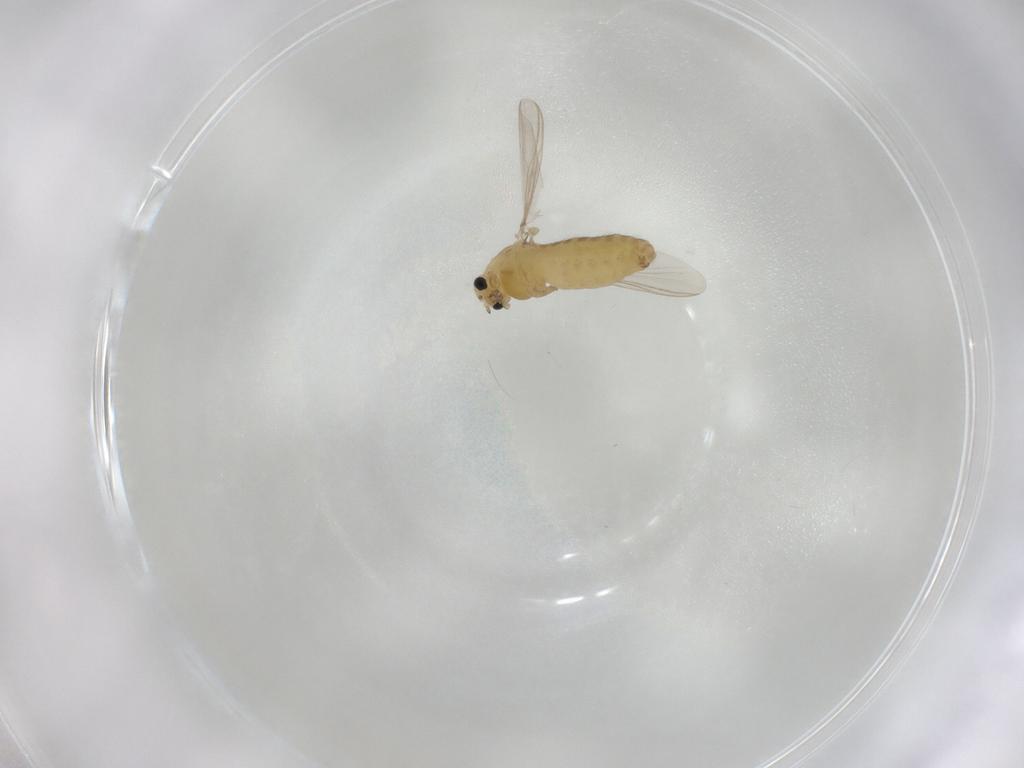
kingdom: Animalia
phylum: Arthropoda
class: Insecta
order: Diptera
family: Chironomidae
